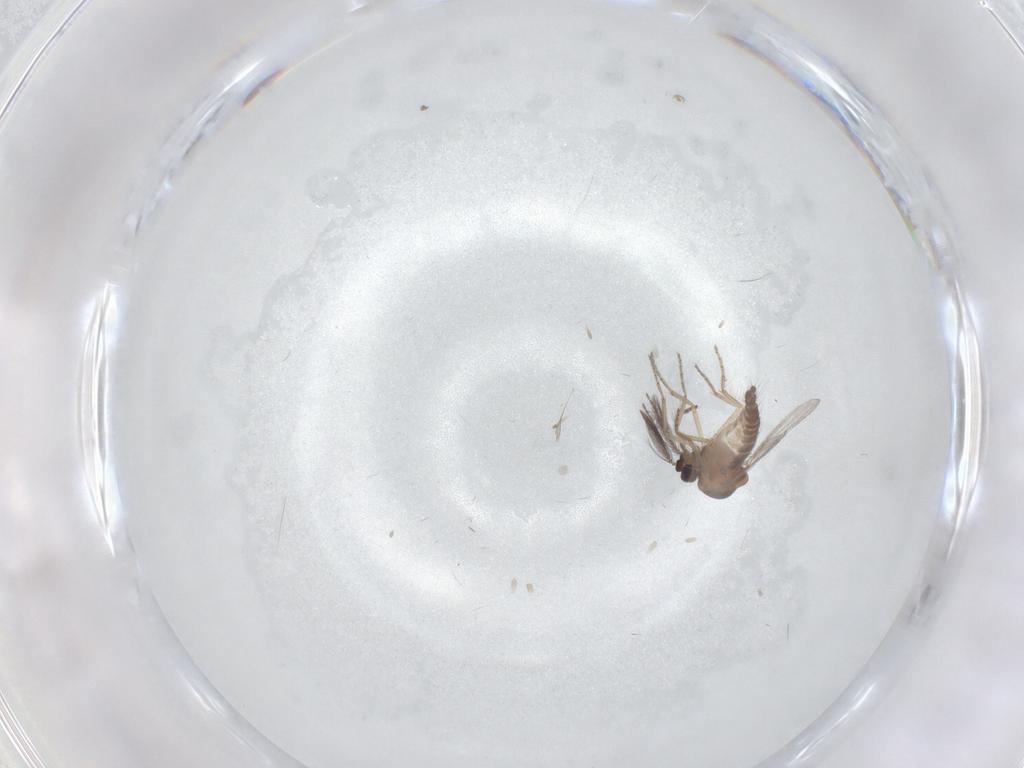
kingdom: Animalia
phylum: Arthropoda
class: Insecta
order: Diptera
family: Ceratopogonidae
